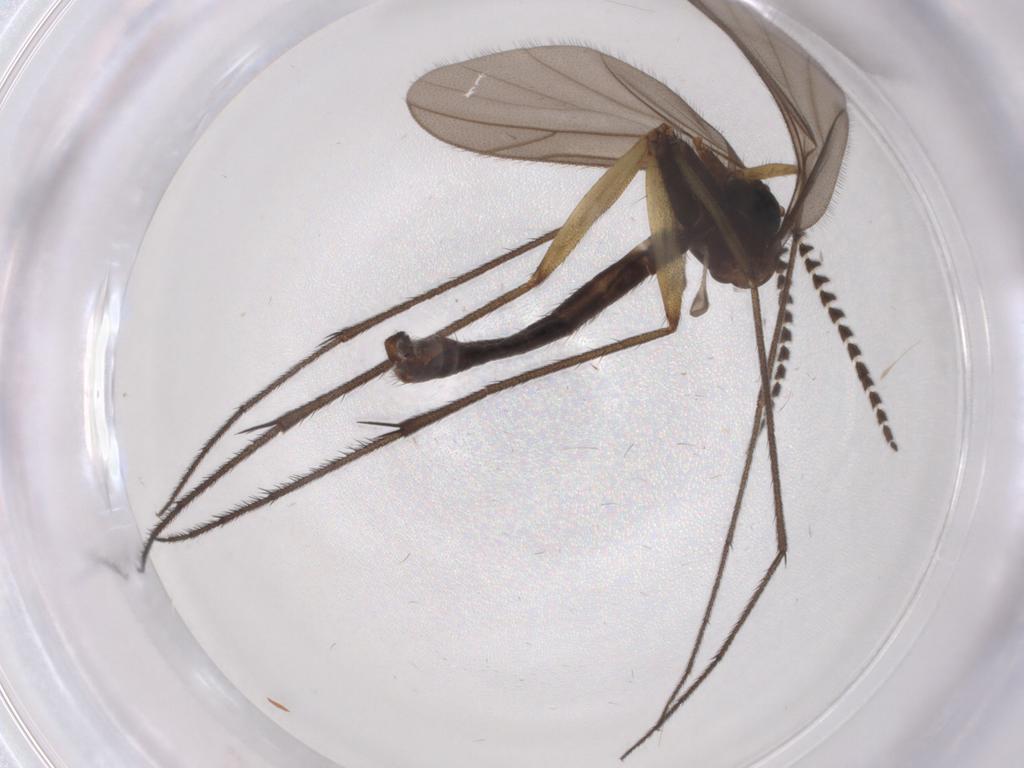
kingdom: Animalia
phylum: Arthropoda
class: Insecta
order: Diptera
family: Ditomyiidae
